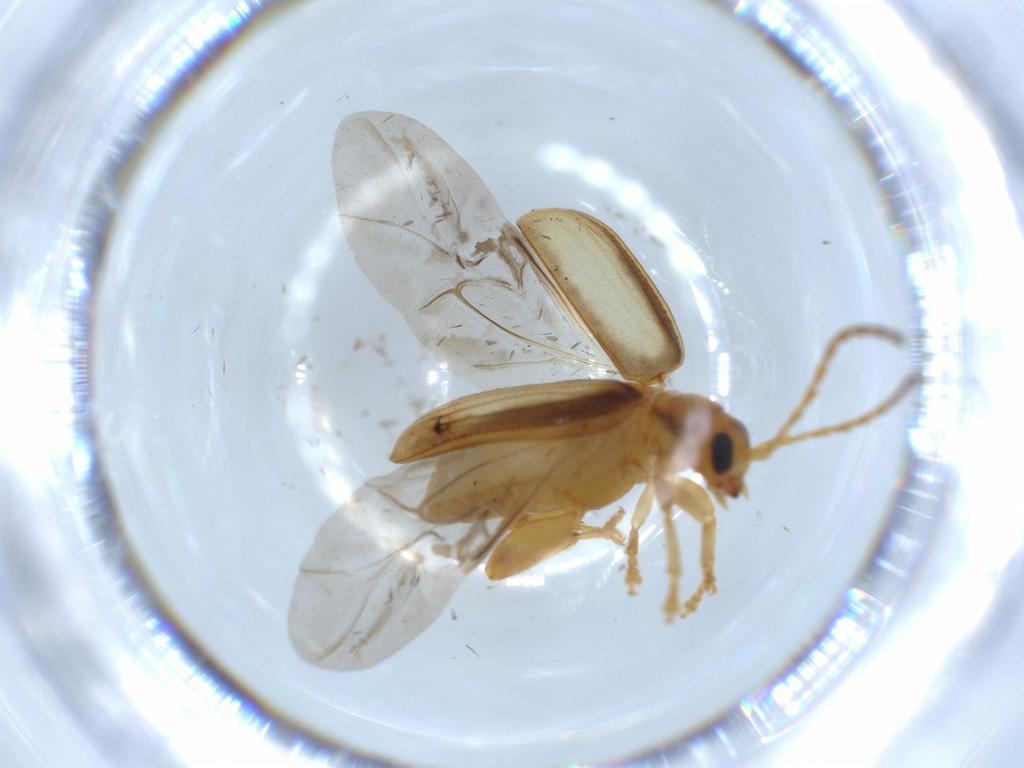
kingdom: Animalia
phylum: Arthropoda
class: Insecta
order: Coleoptera
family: Chrysomelidae
